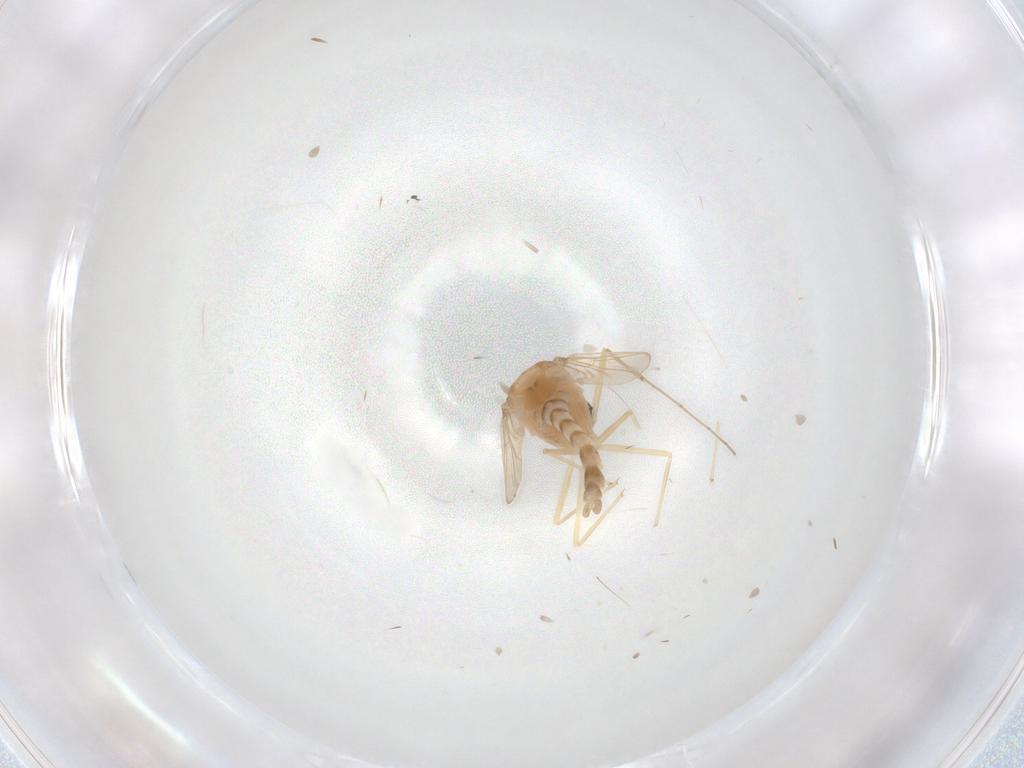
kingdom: Animalia
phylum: Arthropoda
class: Insecta
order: Diptera
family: Chironomidae
